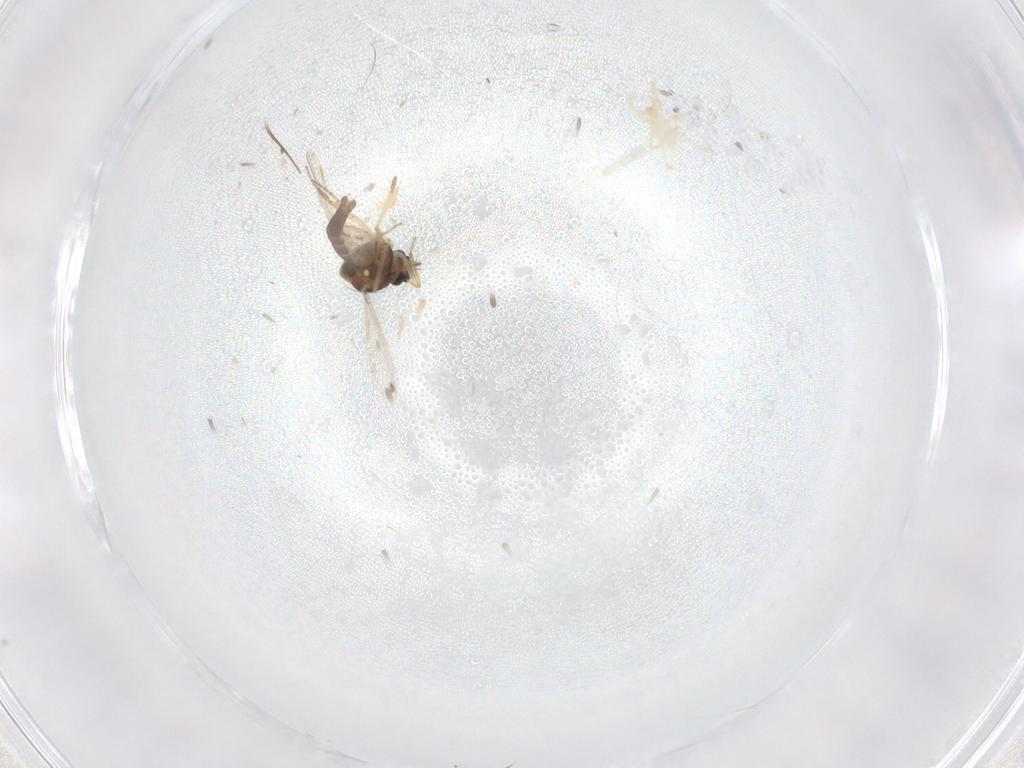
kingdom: Animalia
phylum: Arthropoda
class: Insecta
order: Diptera
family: Ceratopogonidae
